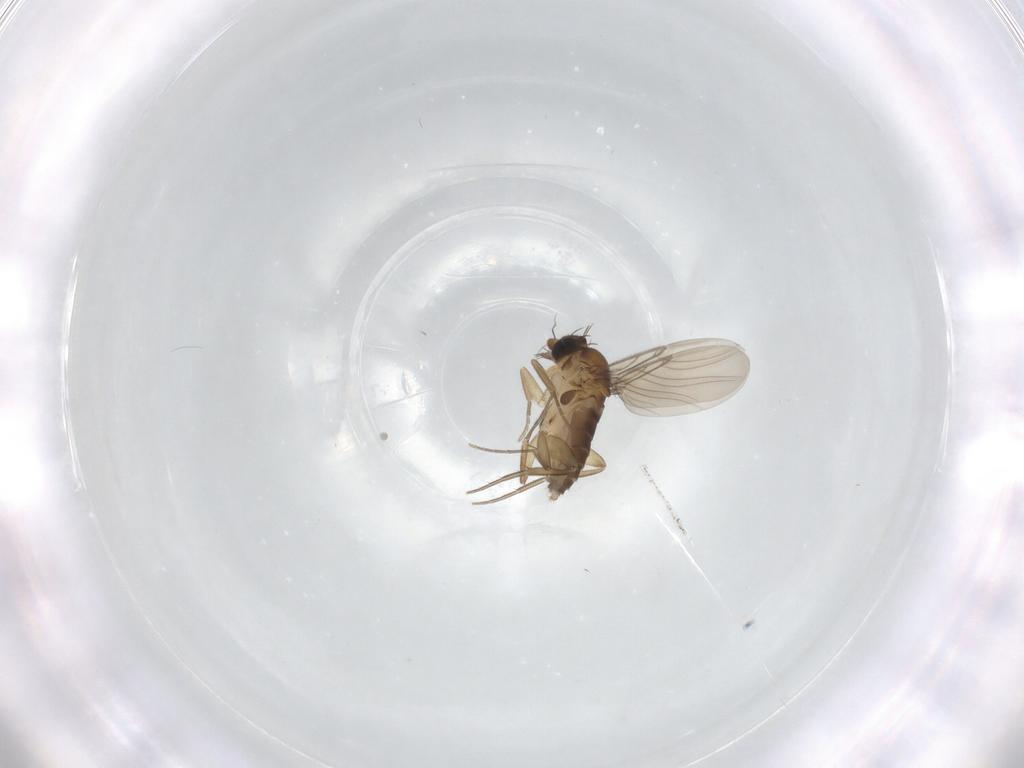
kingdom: Animalia
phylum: Arthropoda
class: Insecta
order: Diptera
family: Phoridae
